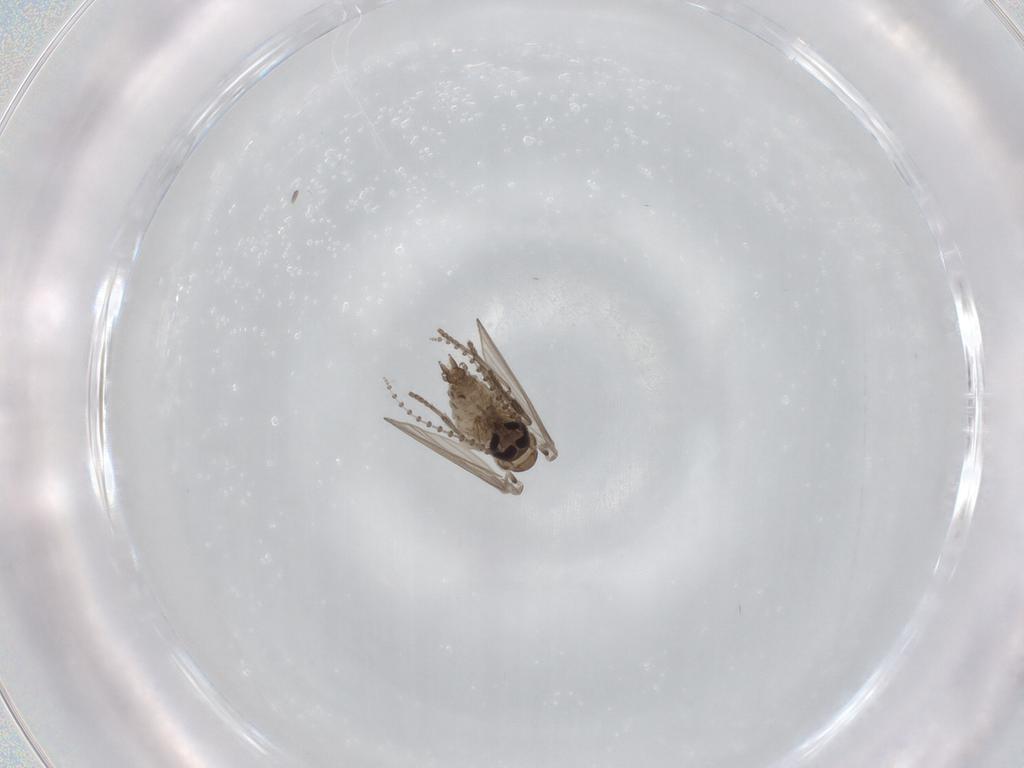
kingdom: Animalia
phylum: Arthropoda
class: Insecta
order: Diptera
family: Psychodidae
